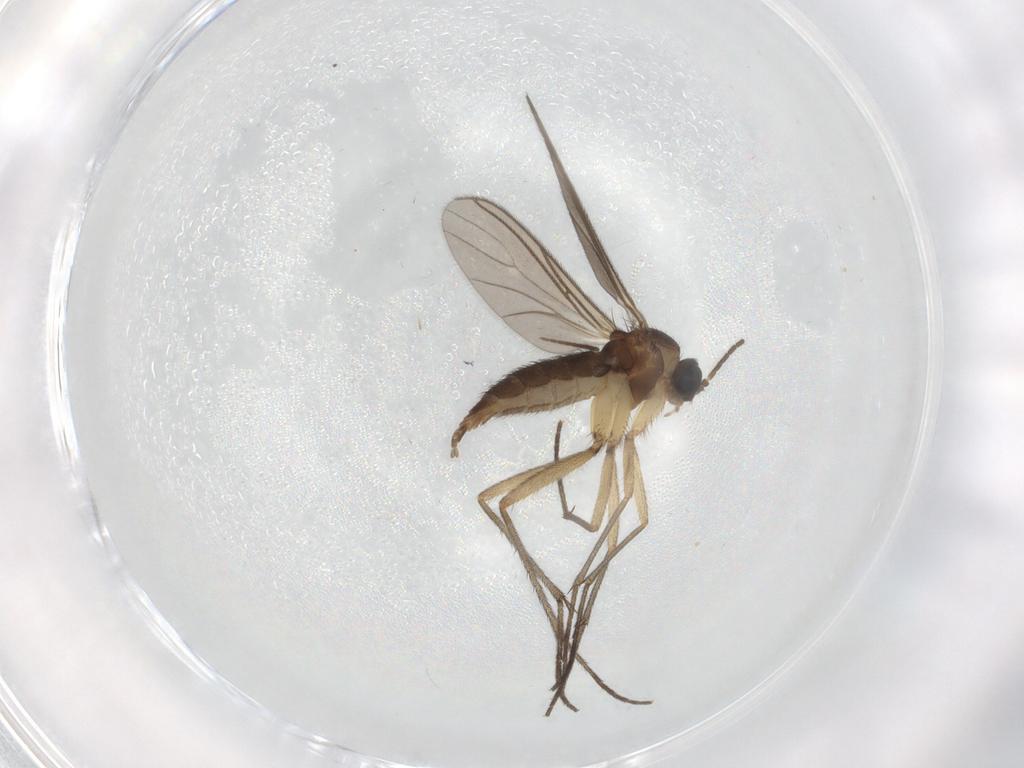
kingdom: Animalia
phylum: Arthropoda
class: Insecta
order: Diptera
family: Sciaridae
